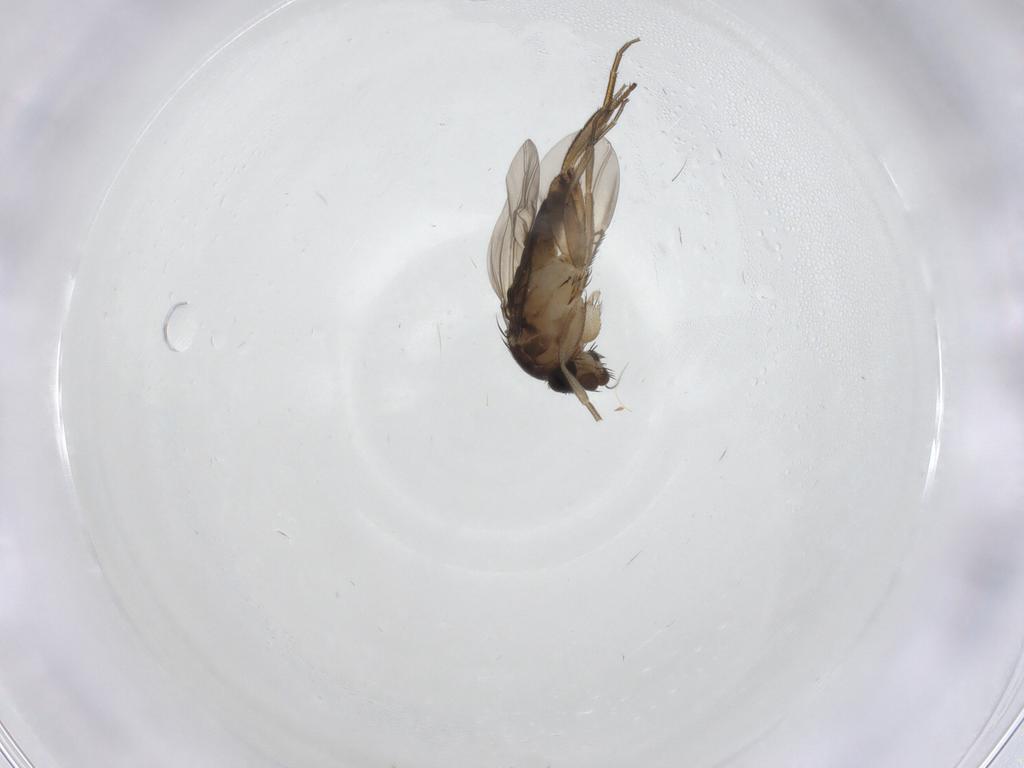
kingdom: Animalia
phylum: Arthropoda
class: Insecta
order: Diptera
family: Phoridae
